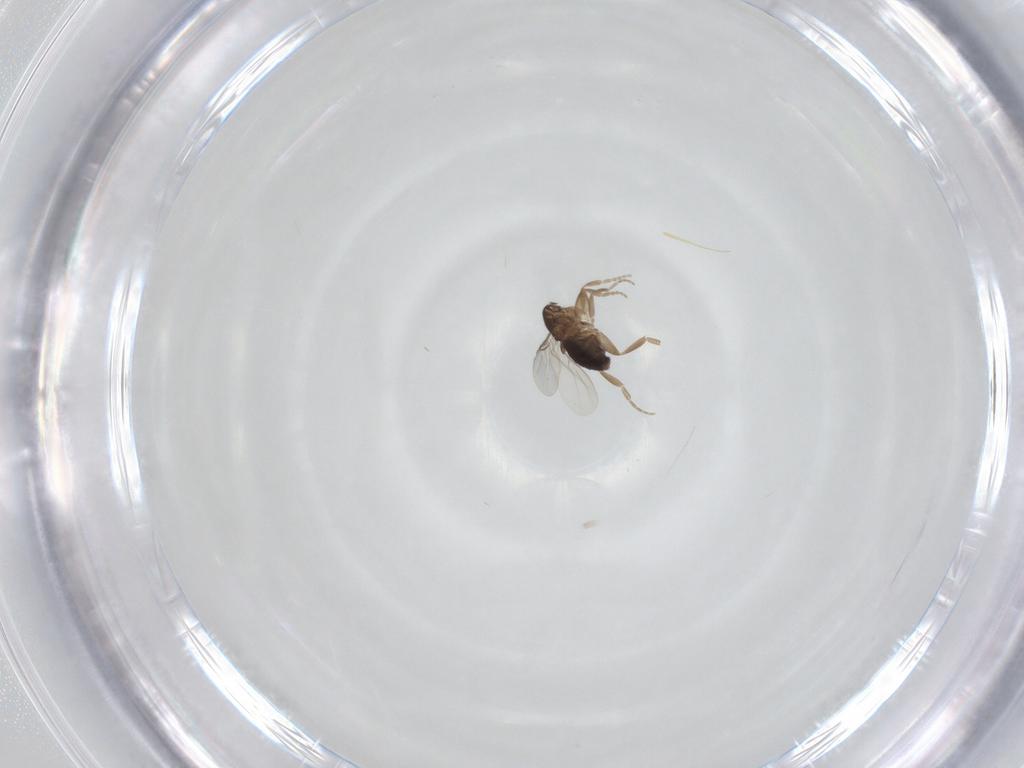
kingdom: Animalia
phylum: Arthropoda
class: Insecta
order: Diptera
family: Phoridae
